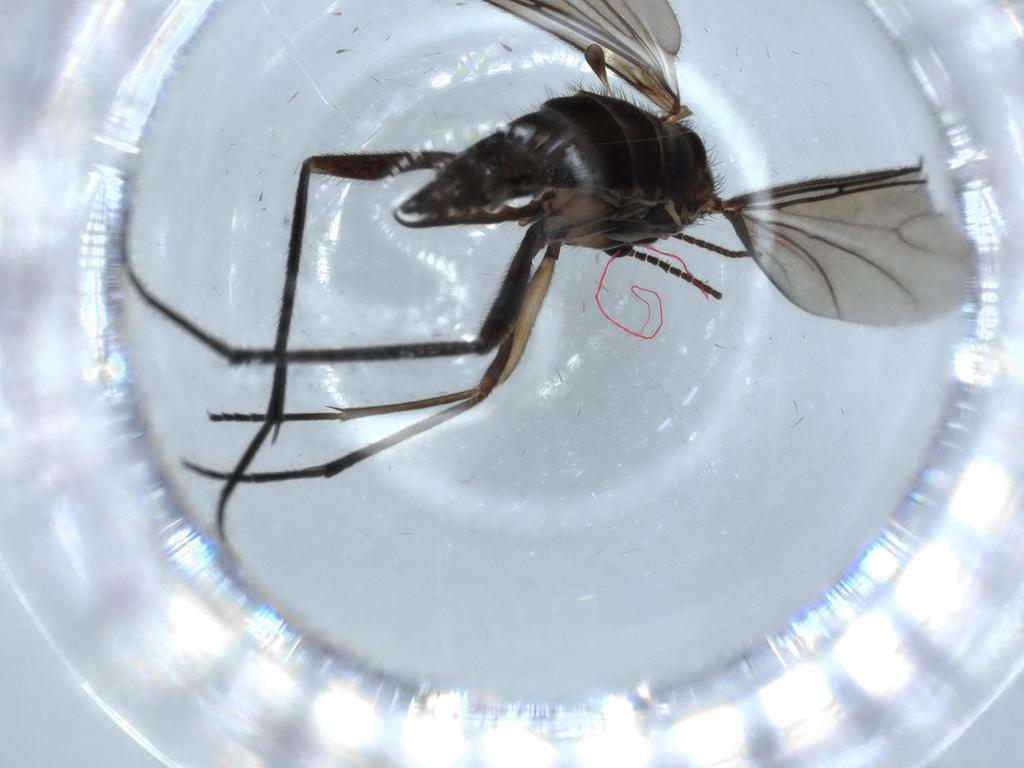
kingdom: Animalia
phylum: Arthropoda
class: Insecta
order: Diptera
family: Sciaridae
